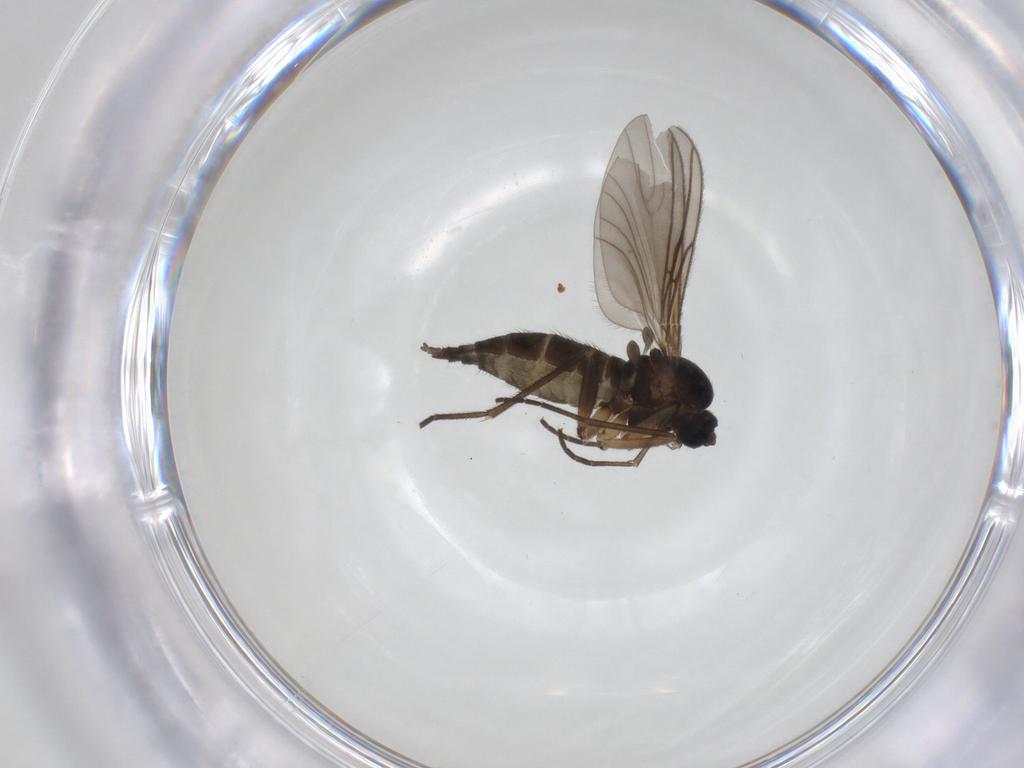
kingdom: Animalia
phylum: Arthropoda
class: Insecta
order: Diptera
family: Sciaridae
